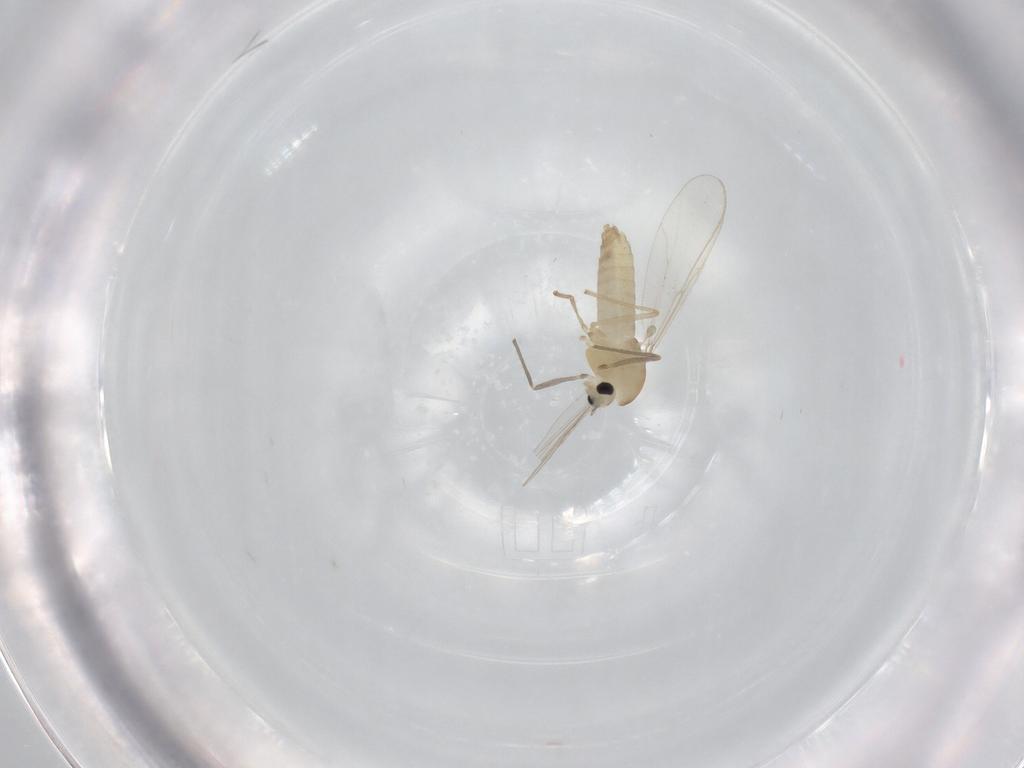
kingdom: Animalia
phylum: Arthropoda
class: Insecta
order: Diptera
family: Chironomidae
